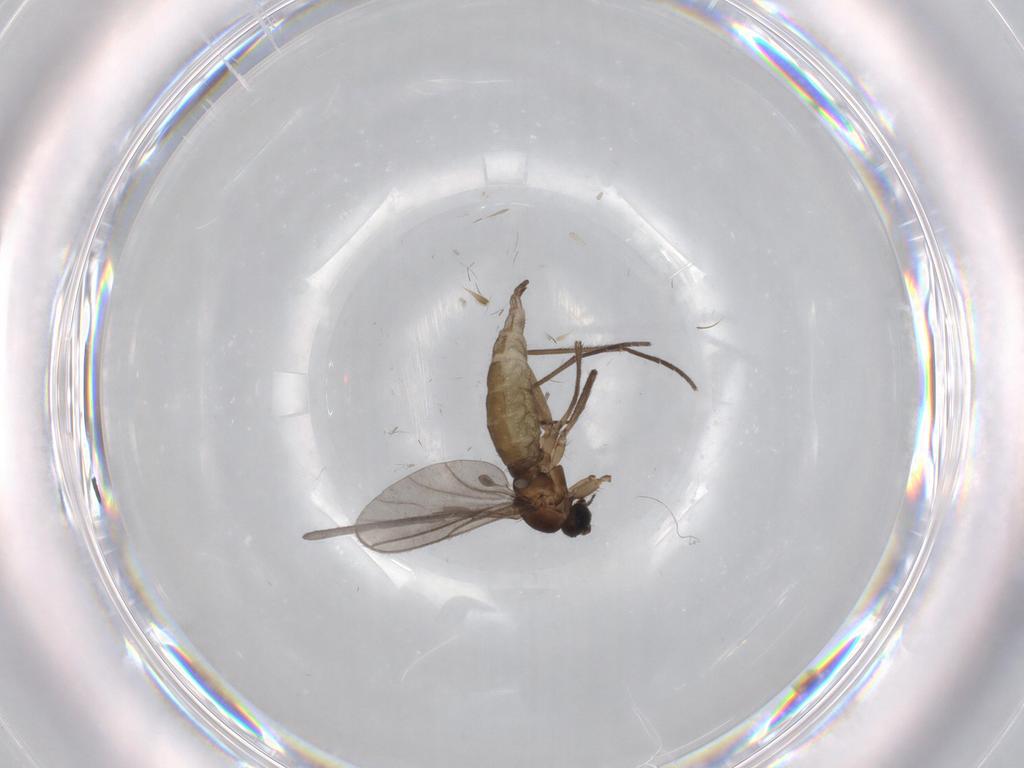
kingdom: Animalia
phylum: Arthropoda
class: Insecta
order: Diptera
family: Sciaridae
